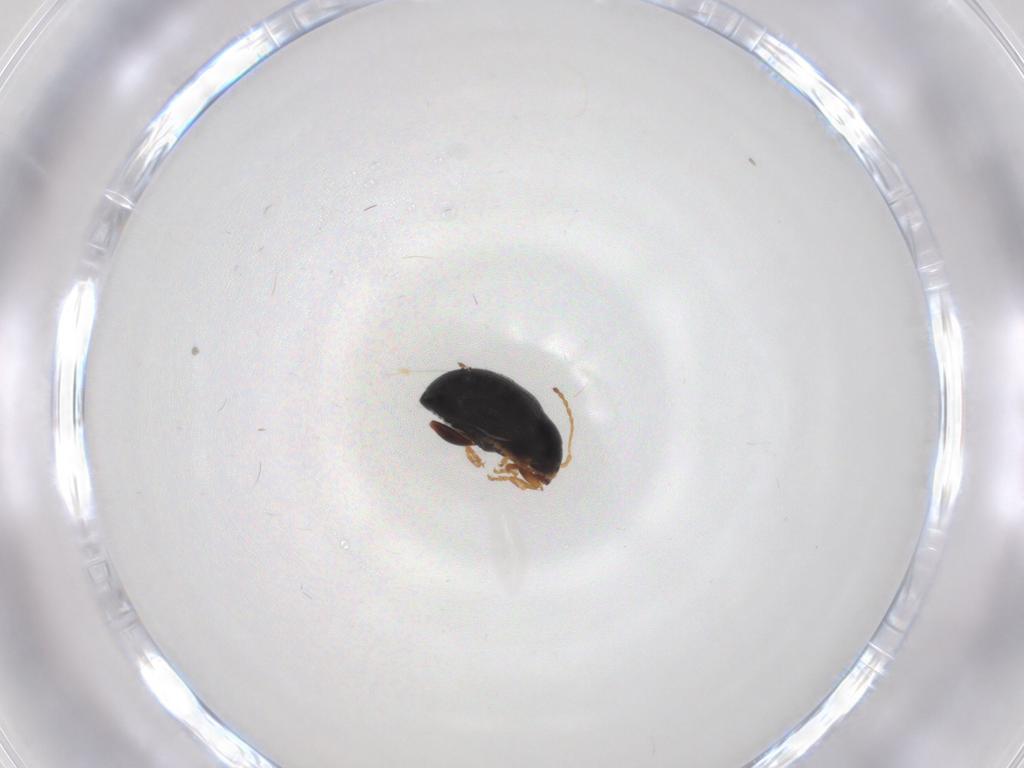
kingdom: Animalia
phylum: Arthropoda
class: Insecta
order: Coleoptera
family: Chrysomelidae
